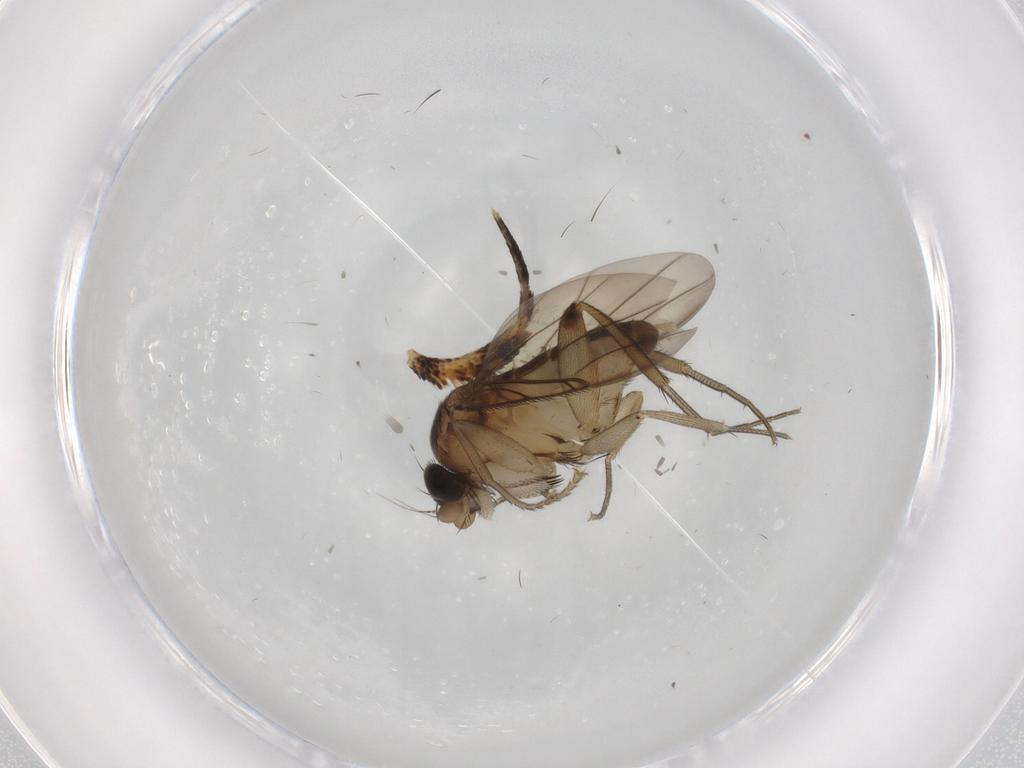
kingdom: Animalia
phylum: Arthropoda
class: Insecta
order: Diptera
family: Phoridae
